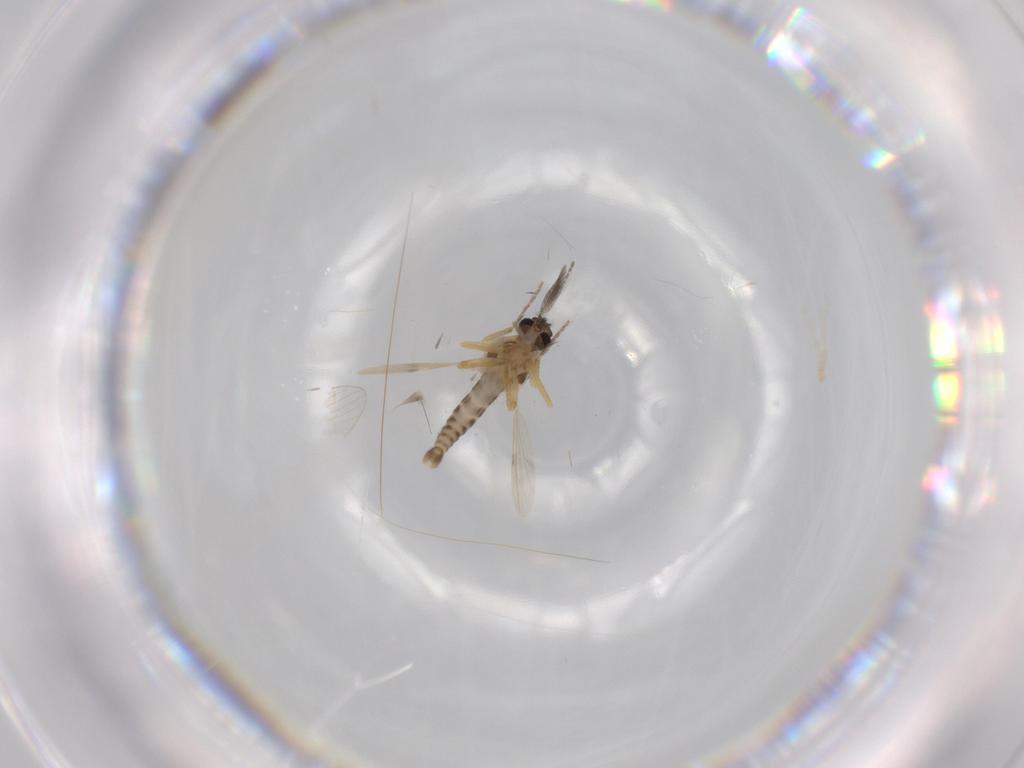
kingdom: Animalia
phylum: Arthropoda
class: Insecta
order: Diptera
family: Ceratopogonidae
